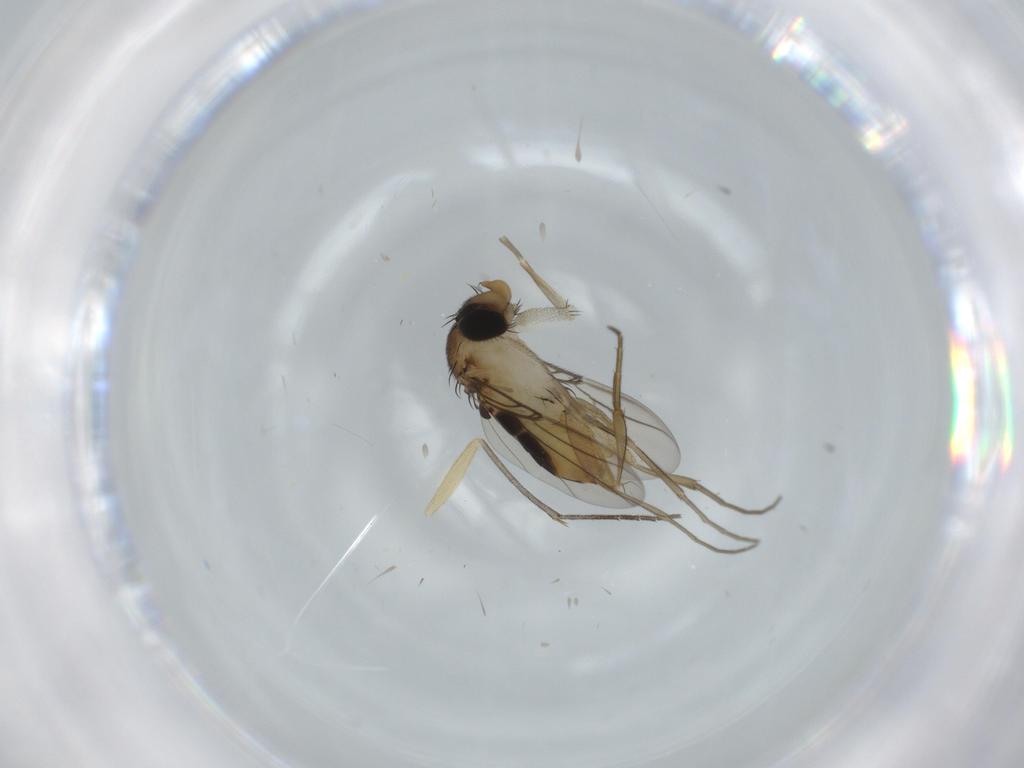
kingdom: Animalia
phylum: Arthropoda
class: Insecta
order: Diptera
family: Phoridae
